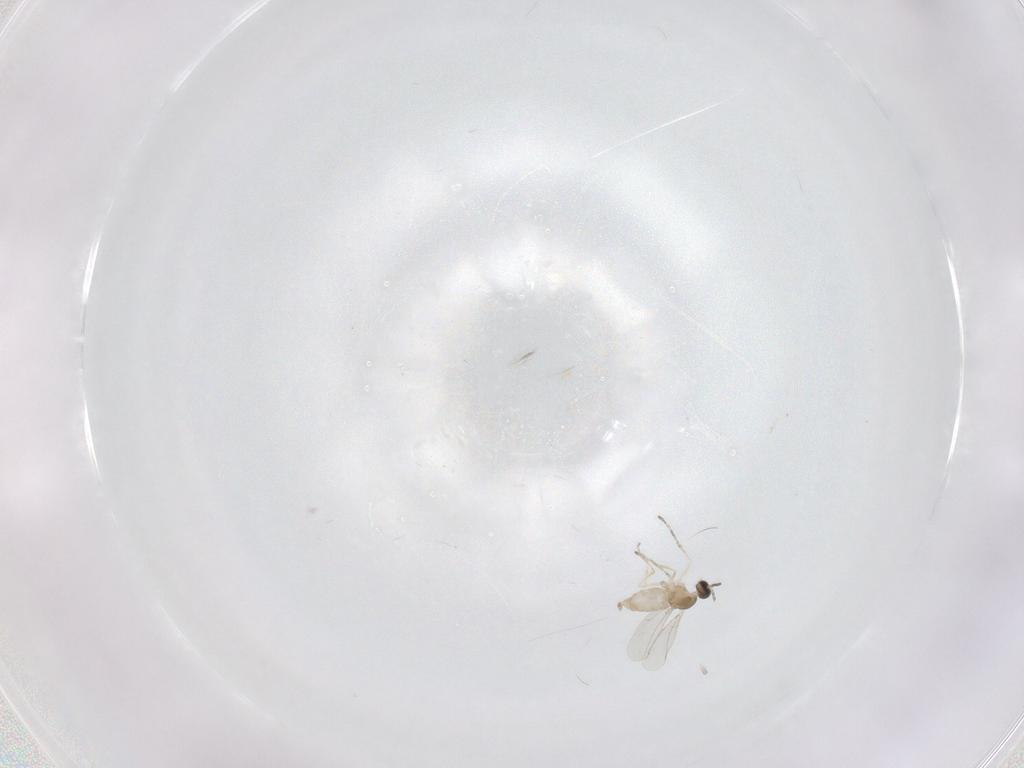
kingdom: Animalia
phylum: Arthropoda
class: Insecta
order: Diptera
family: Cecidomyiidae
